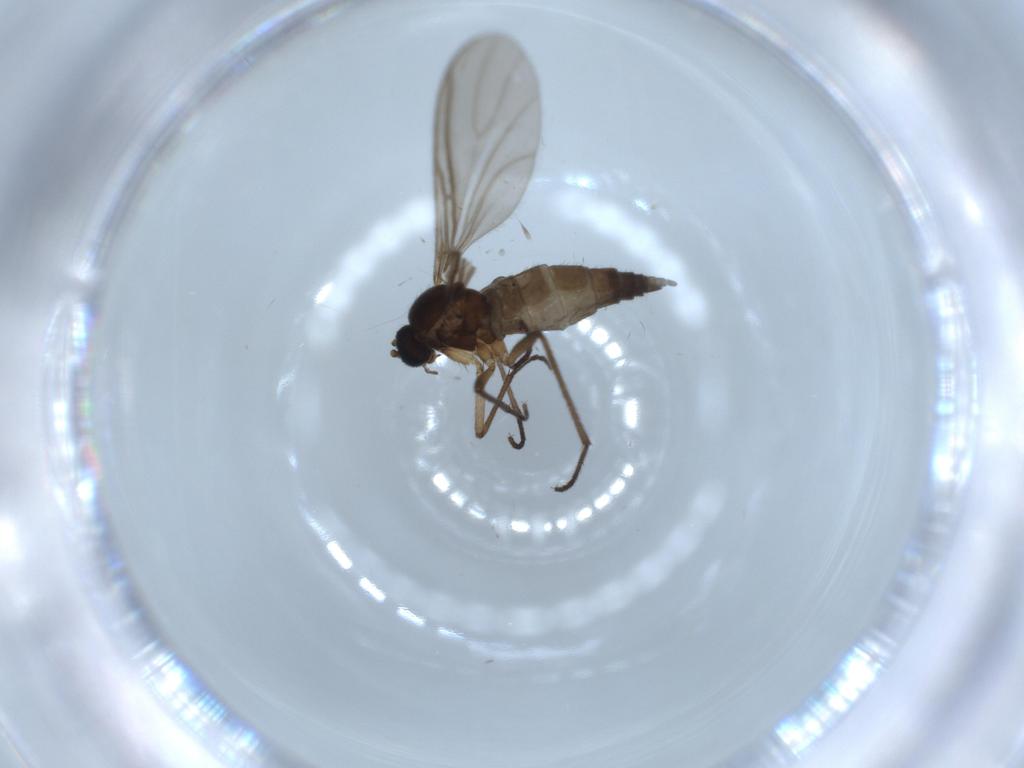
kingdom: Animalia
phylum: Arthropoda
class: Insecta
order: Diptera
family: Sciaridae
